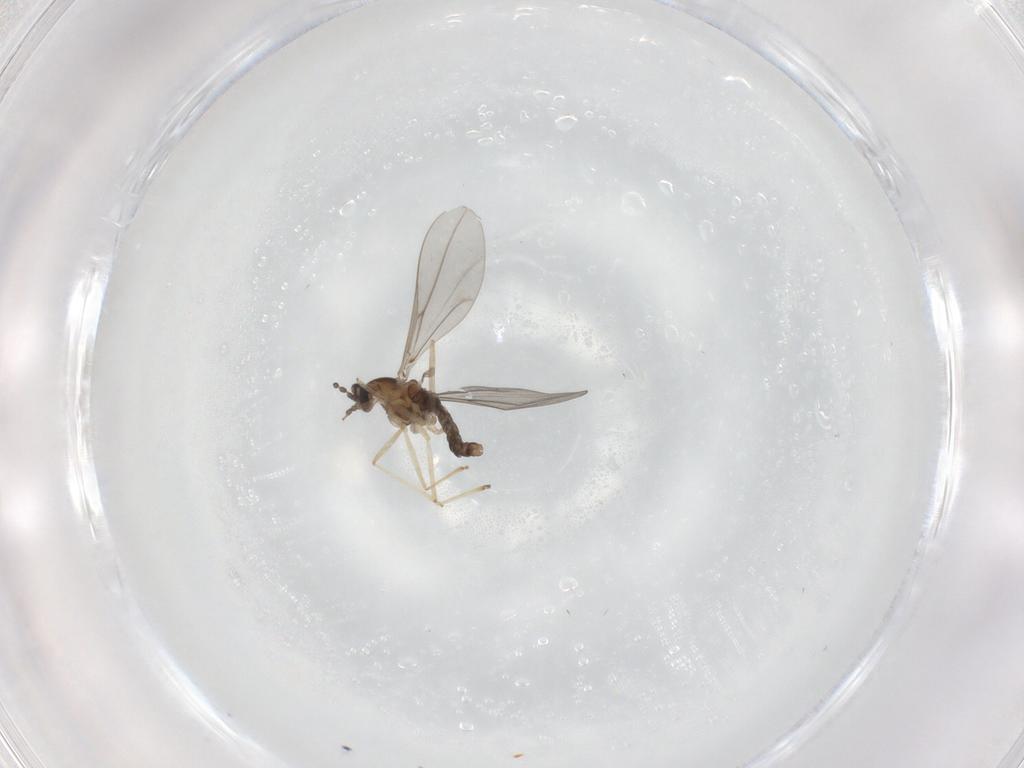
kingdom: Animalia
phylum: Arthropoda
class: Insecta
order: Diptera
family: Cecidomyiidae
